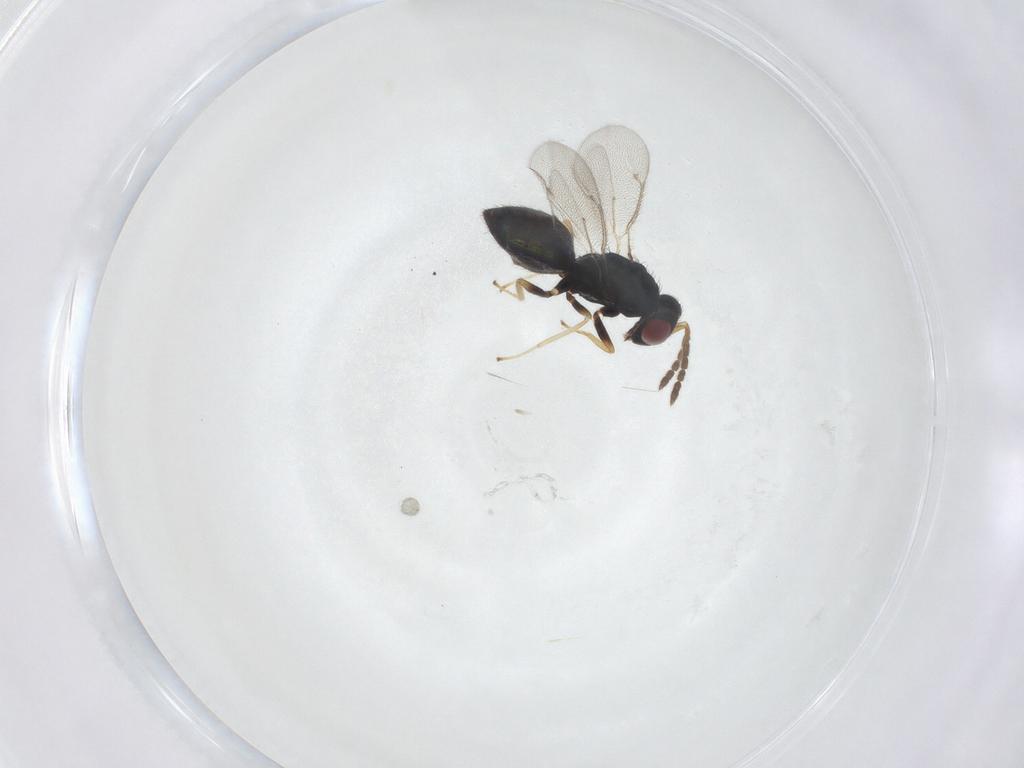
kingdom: Animalia
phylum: Arthropoda
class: Insecta
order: Hymenoptera
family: Eulophidae
